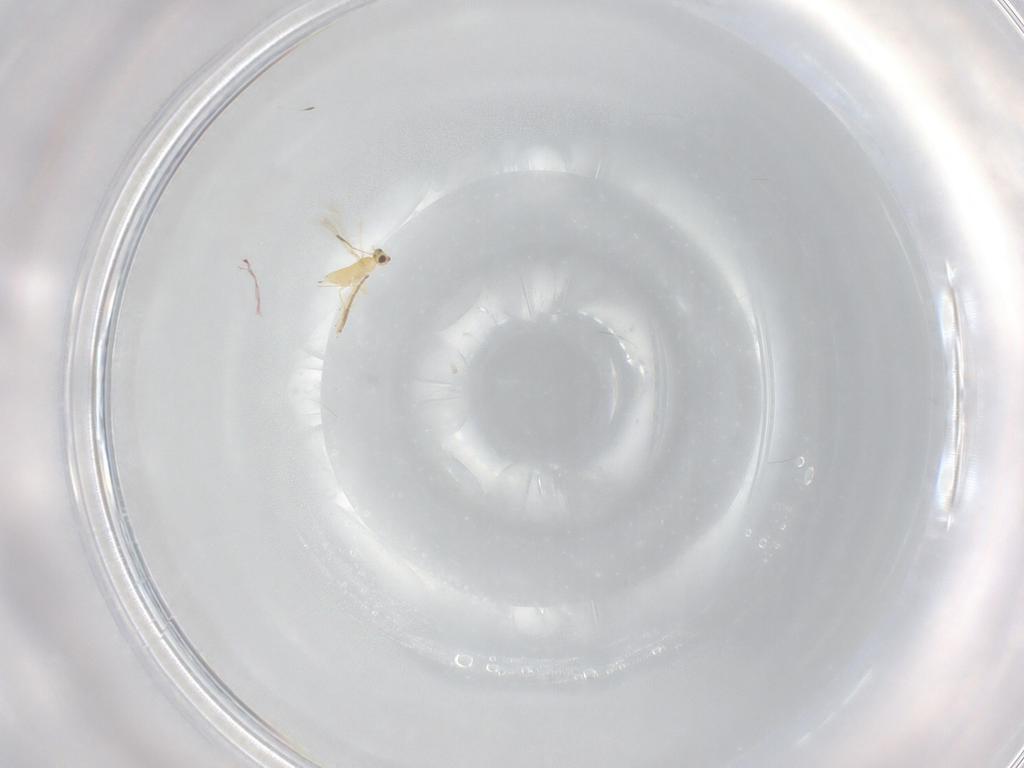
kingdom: Animalia
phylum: Arthropoda
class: Insecta
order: Hymenoptera
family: Mymaridae
